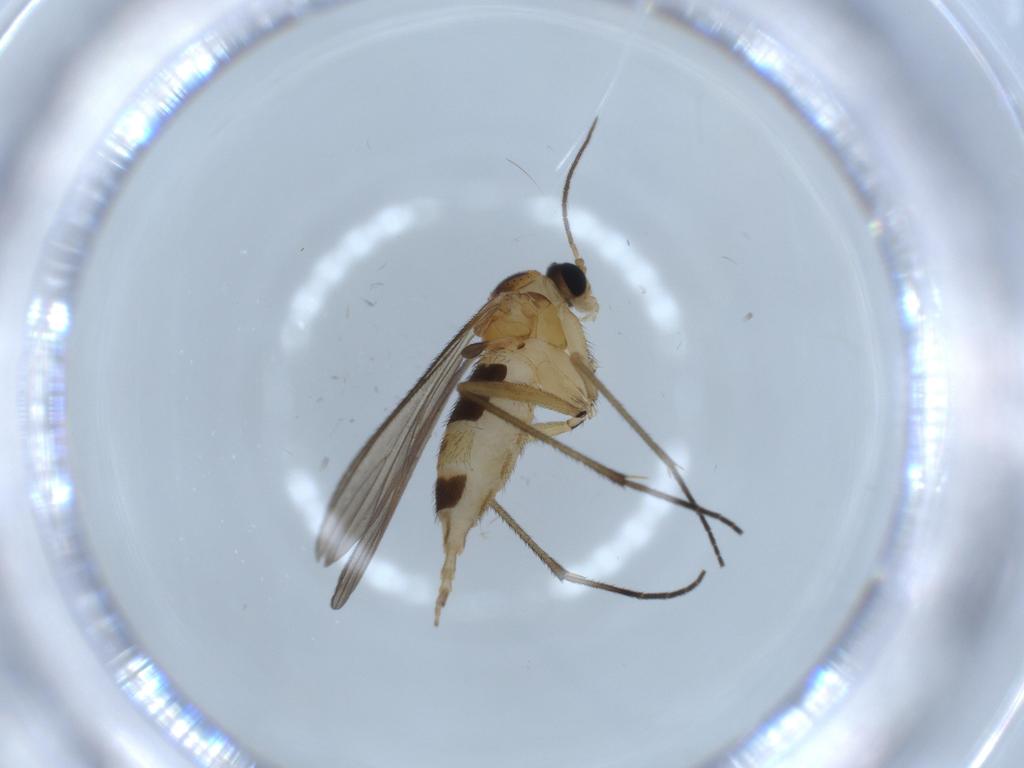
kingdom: Animalia
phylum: Arthropoda
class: Insecta
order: Diptera
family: Sciaridae
